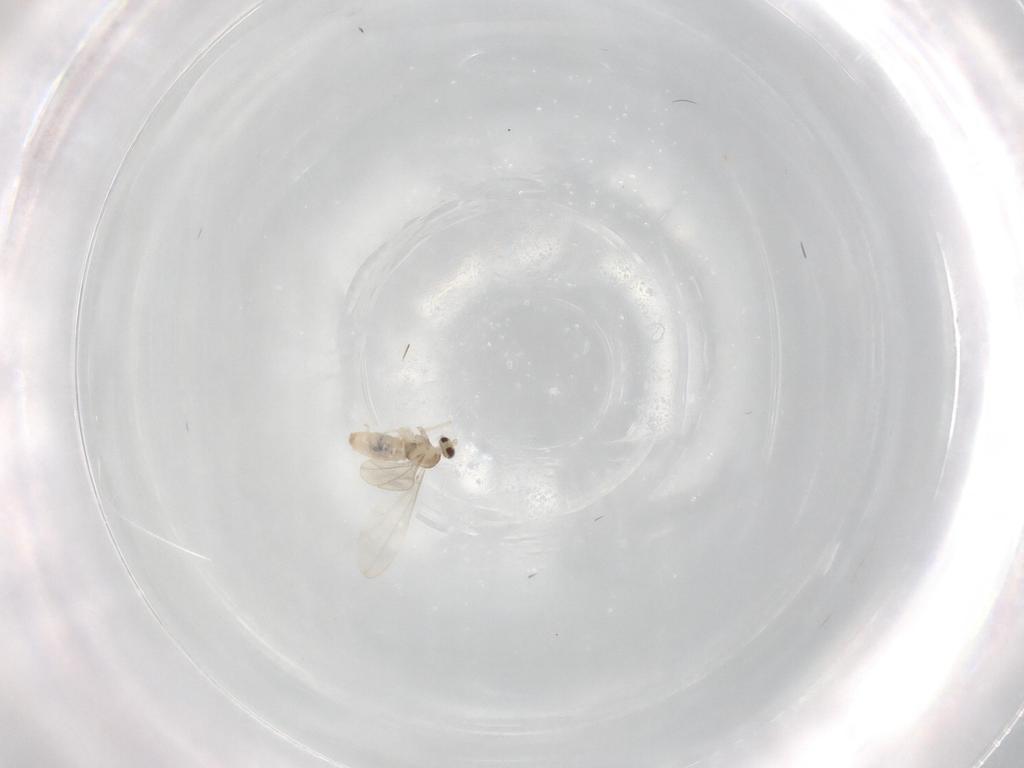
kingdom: Animalia
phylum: Arthropoda
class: Insecta
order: Diptera
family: Cecidomyiidae
